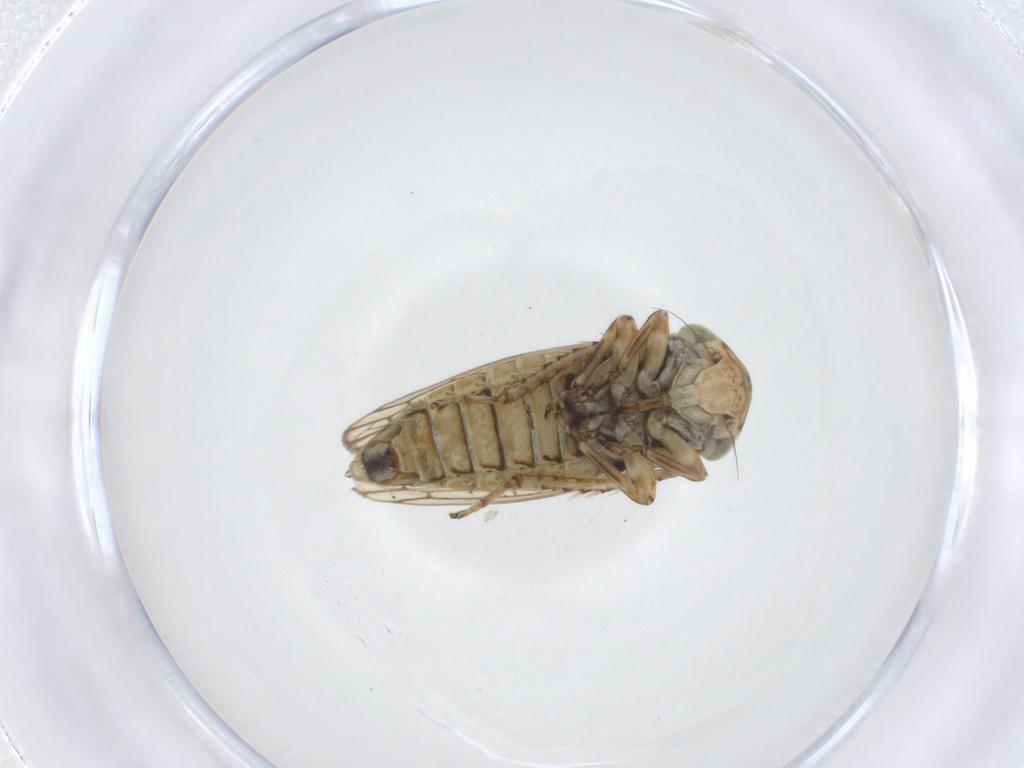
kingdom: Animalia
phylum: Arthropoda
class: Insecta
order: Hemiptera
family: Cicadellidae
